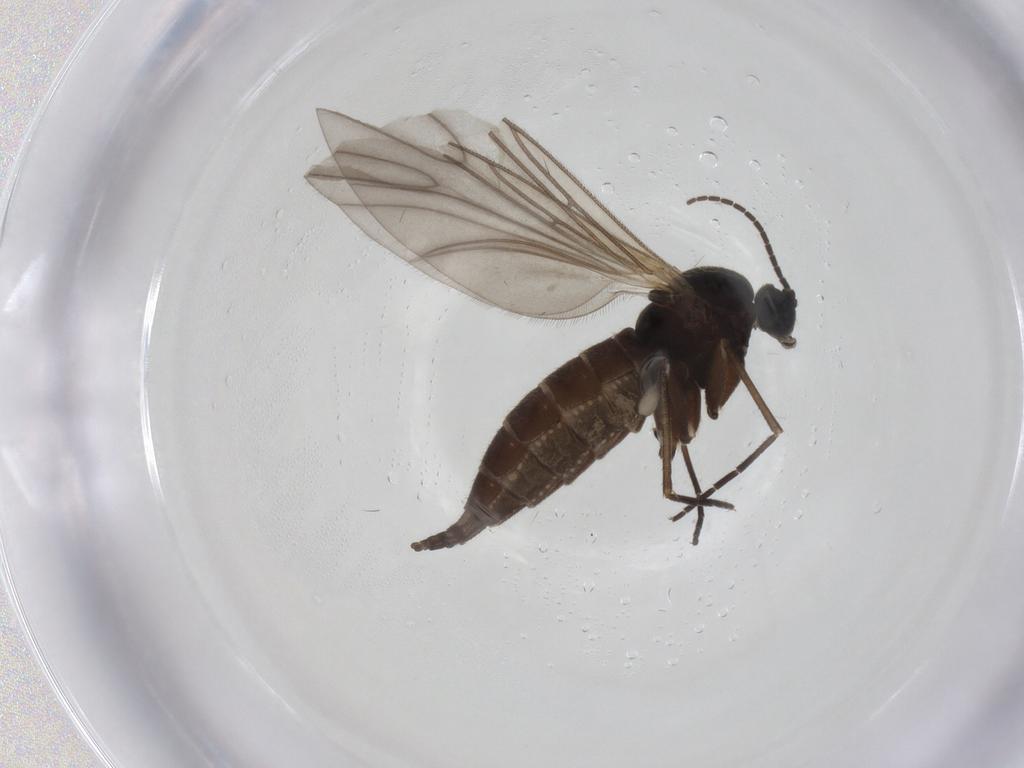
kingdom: Animalia
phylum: Arthropoda
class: Insecta
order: Diptera
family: Sciaridae
